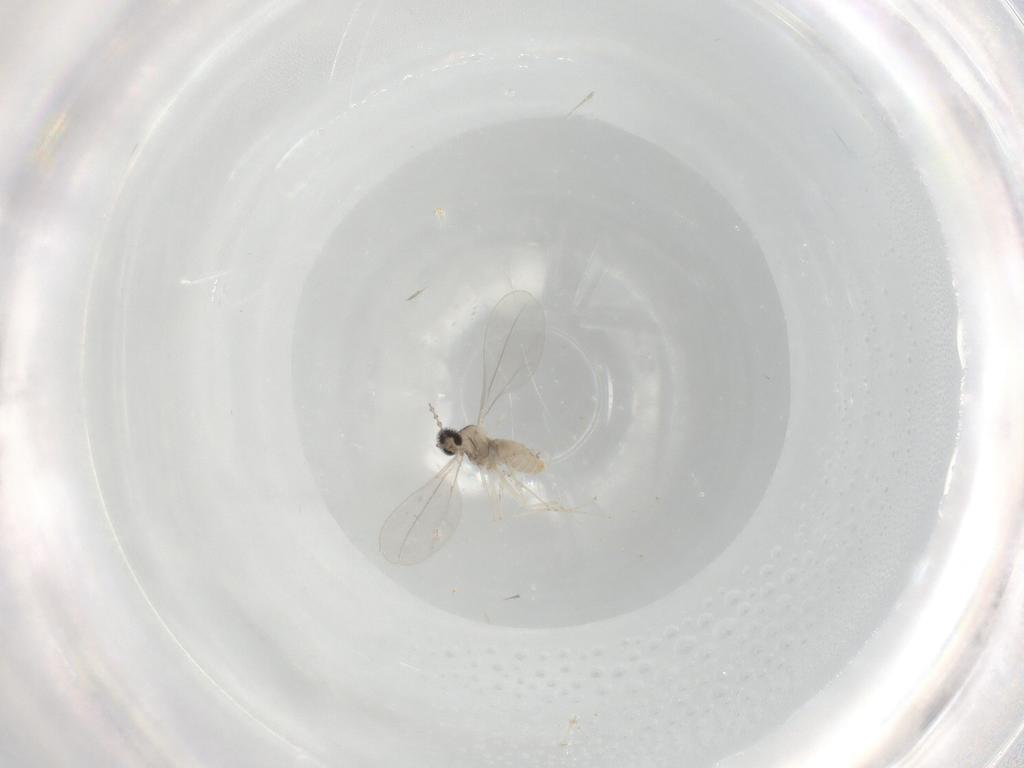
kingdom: Animalia
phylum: Arthropoda
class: Insecta
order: Diptera
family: Cecidomyiidae
